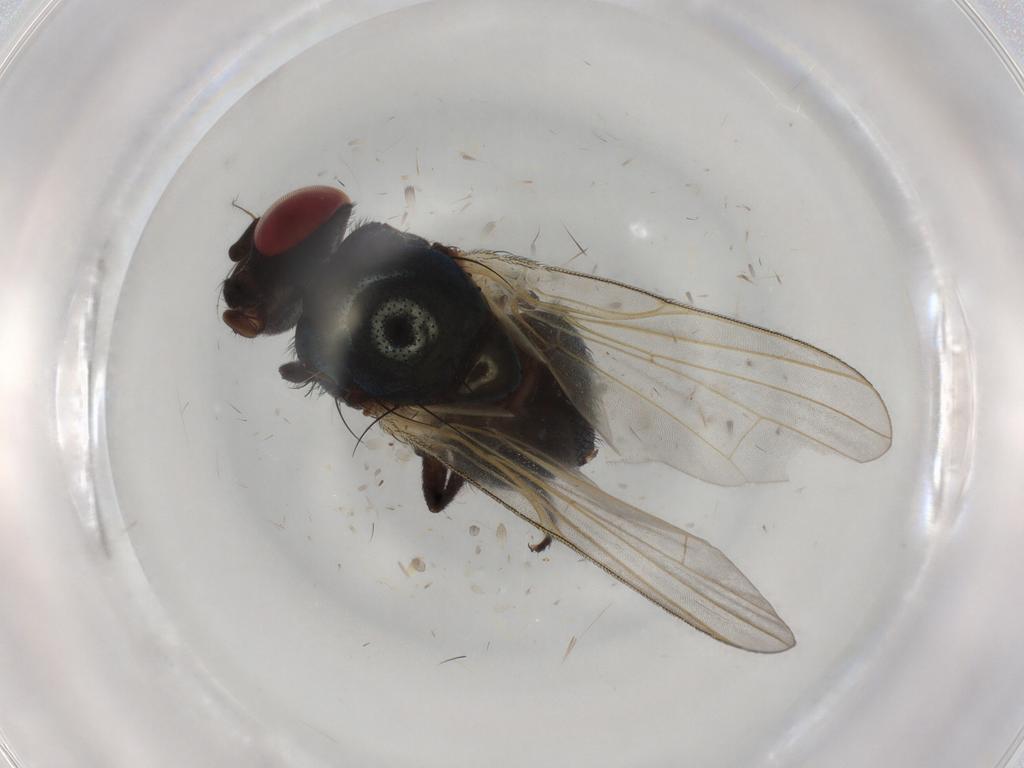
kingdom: Animalia
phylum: Arthropoda
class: Insecta
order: Diptera
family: Lonchaeidae
